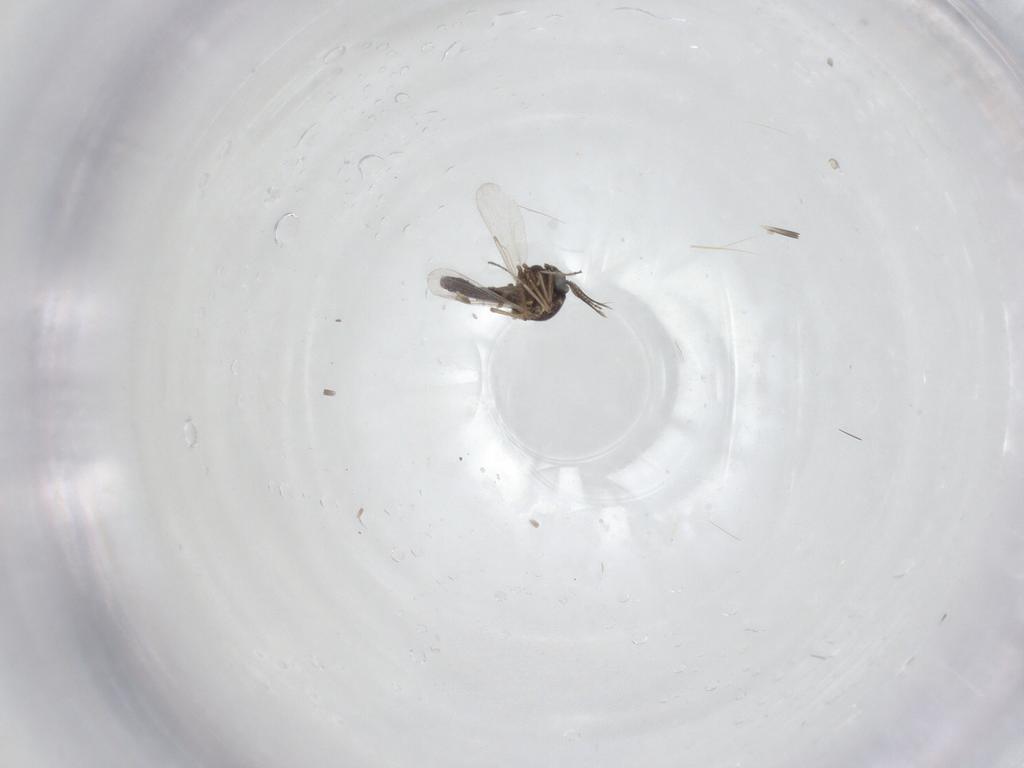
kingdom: Animalia
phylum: Arthropoda
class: Insecta
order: Diptera
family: Ceratopogonidae
